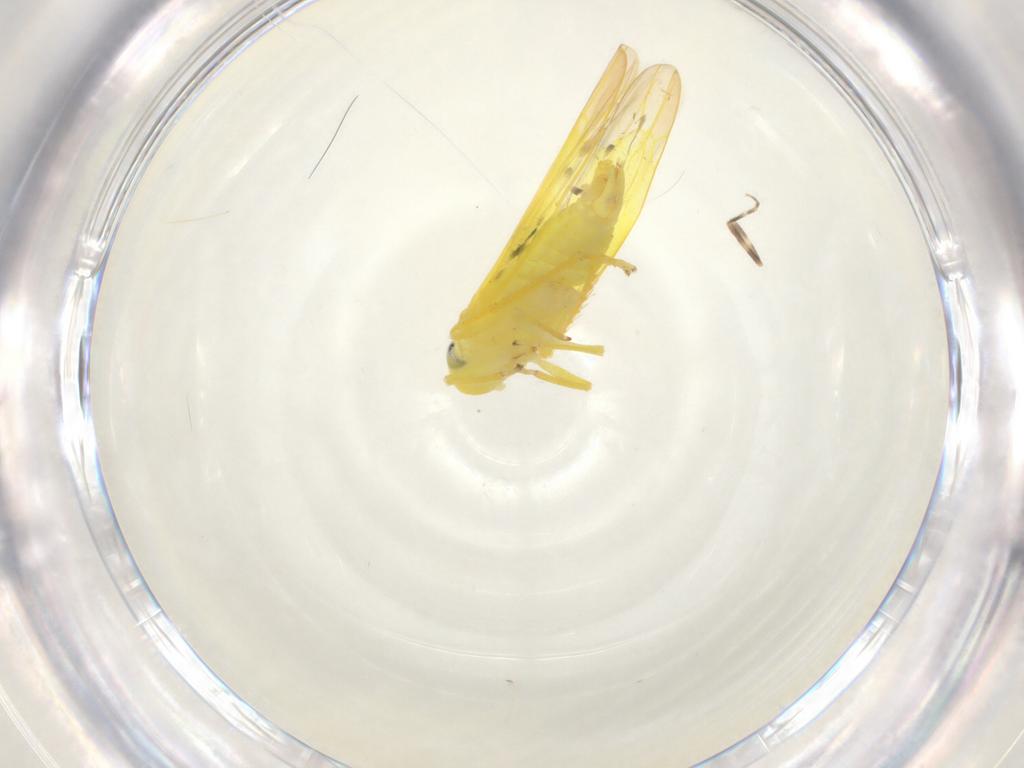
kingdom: Animalia
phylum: Arthropoda
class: Insecta
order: Hemiptera
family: Cicadellidae
